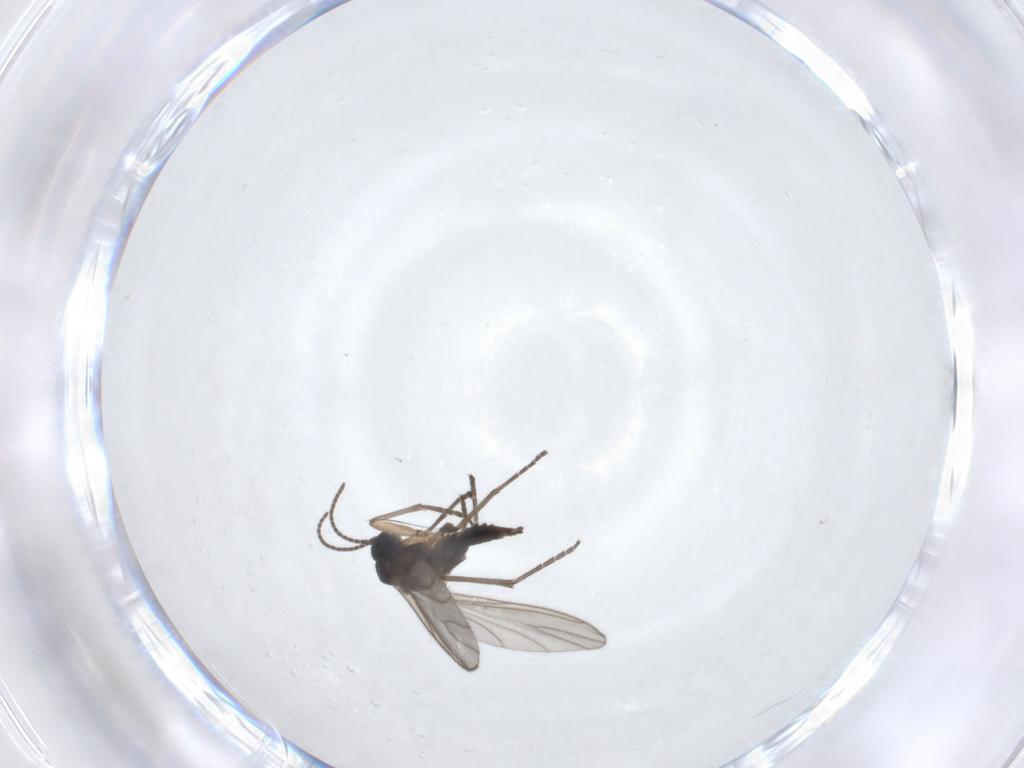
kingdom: Animalia
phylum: Arthropoda
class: Insecta
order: Diptera
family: Sciaridae
